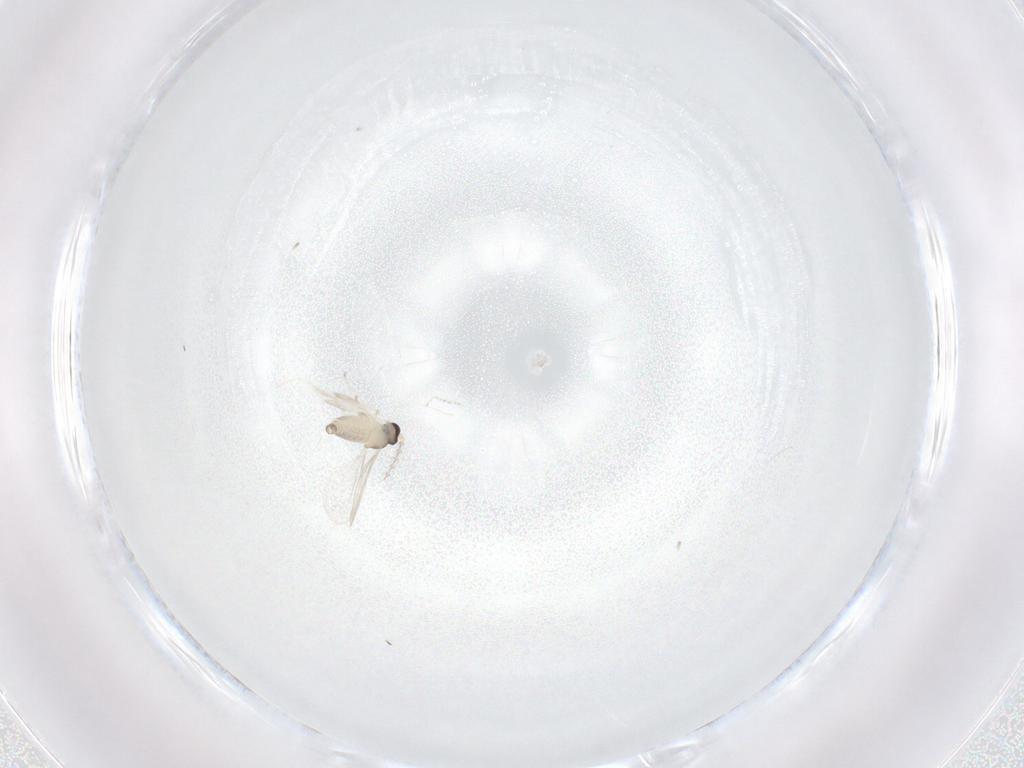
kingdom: Animalia
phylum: Arthropoda
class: Insecta
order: Diptera
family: Cecidomyiidae
